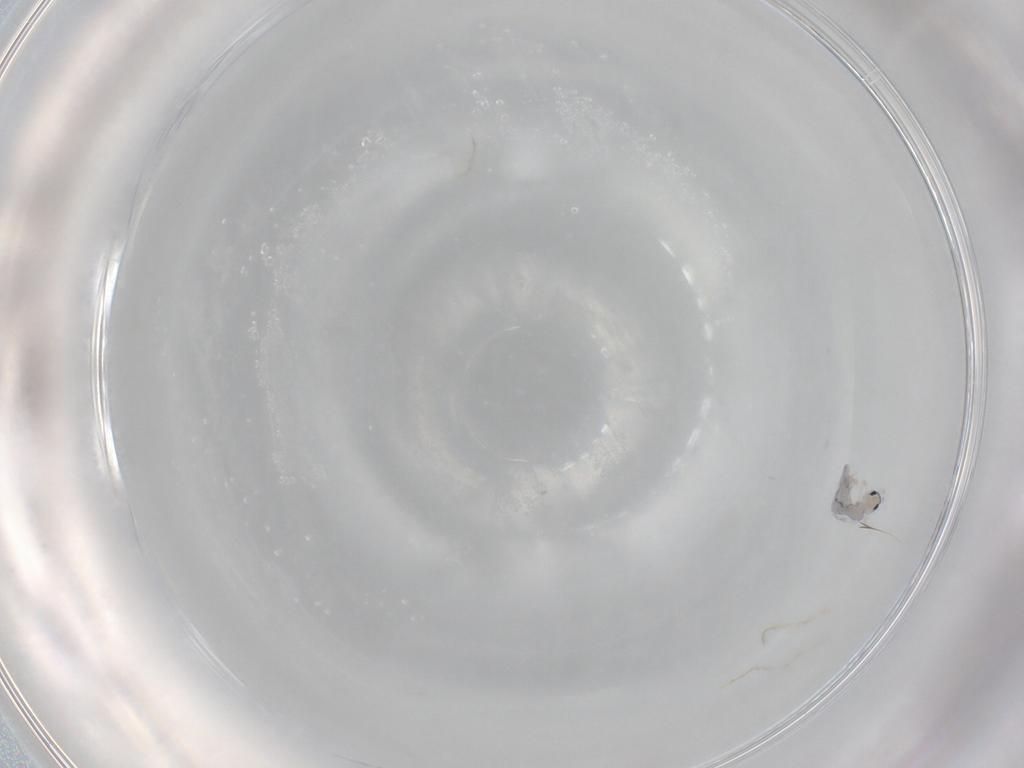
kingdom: Animalia
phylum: Arthropoda
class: Collembola
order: Entomobryomorpha
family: Entomobryidae
